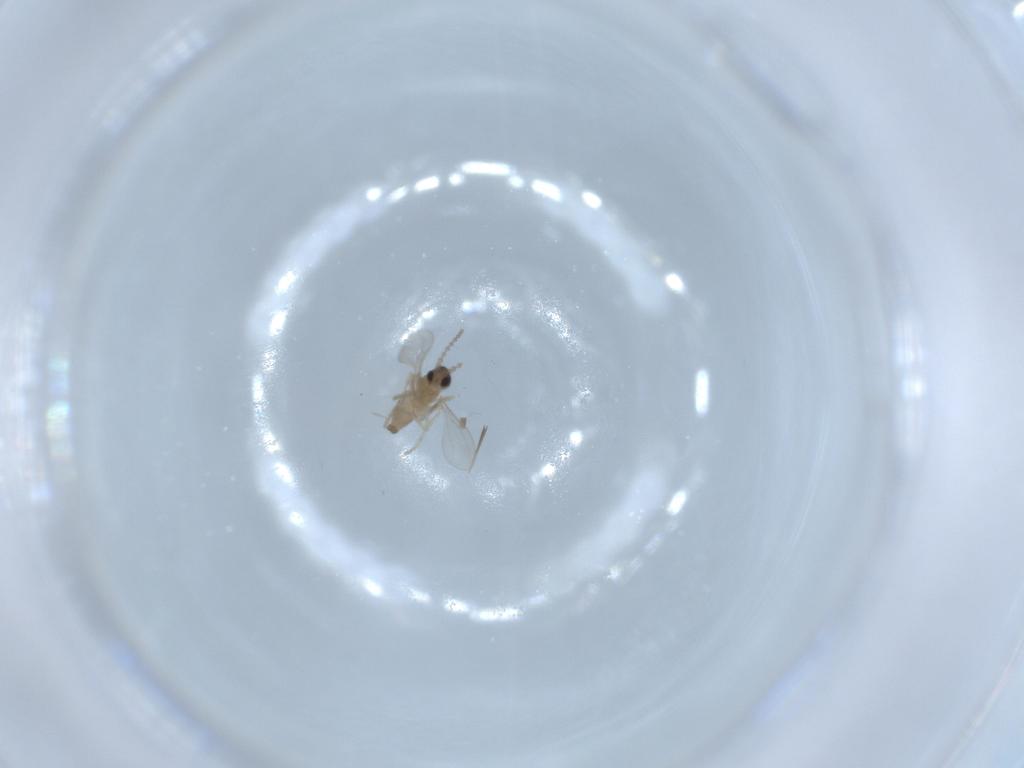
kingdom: Animalia
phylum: Arthropoda
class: Insecta
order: Diptera
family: Cecidomyiidae
